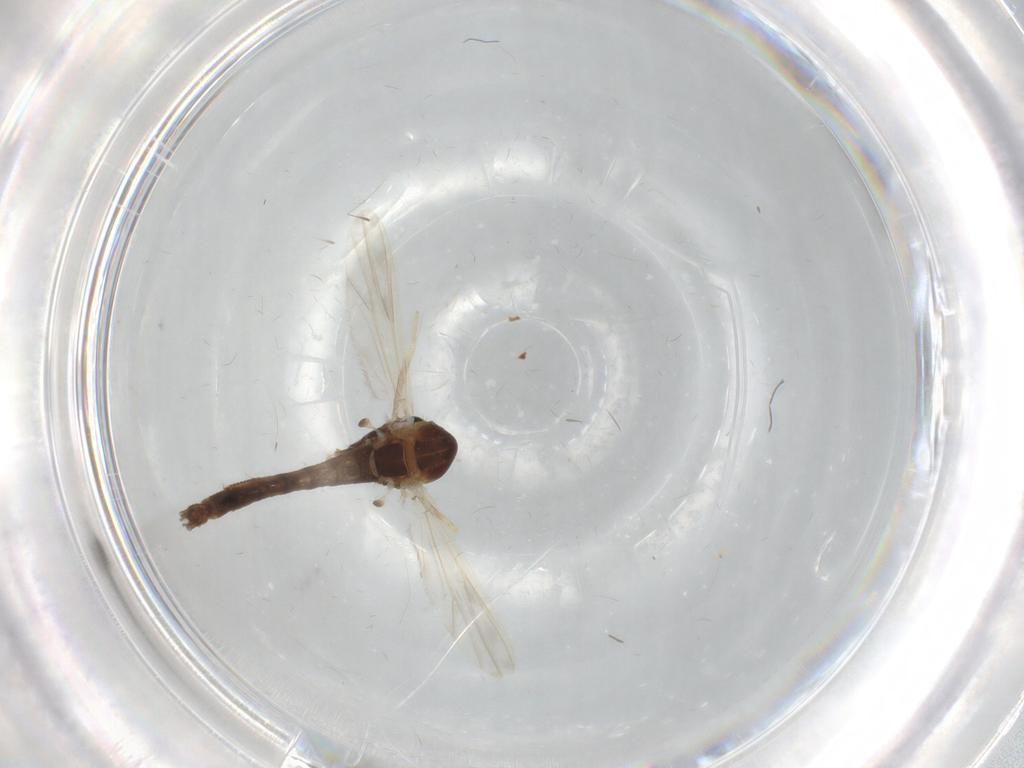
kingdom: Animalia
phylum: Arthropoda
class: Insecta
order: Diptera
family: Chironomidae
